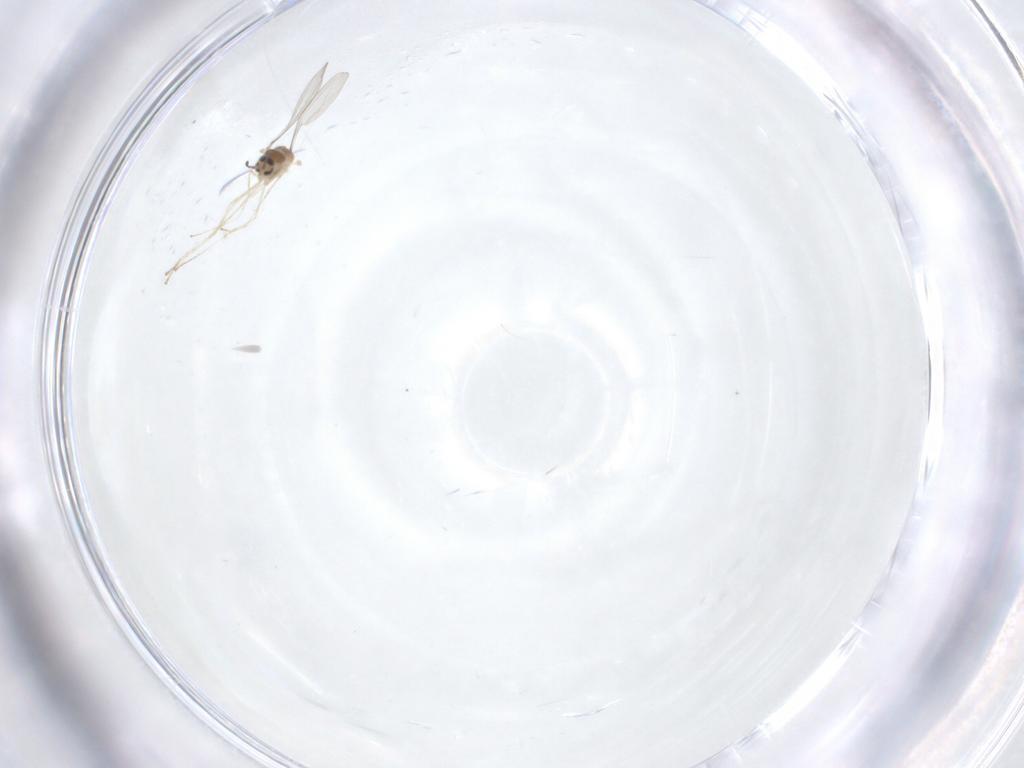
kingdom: Animalia
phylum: Arthropoda
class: Insecta
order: Diptera
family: Cecidomyiidae
